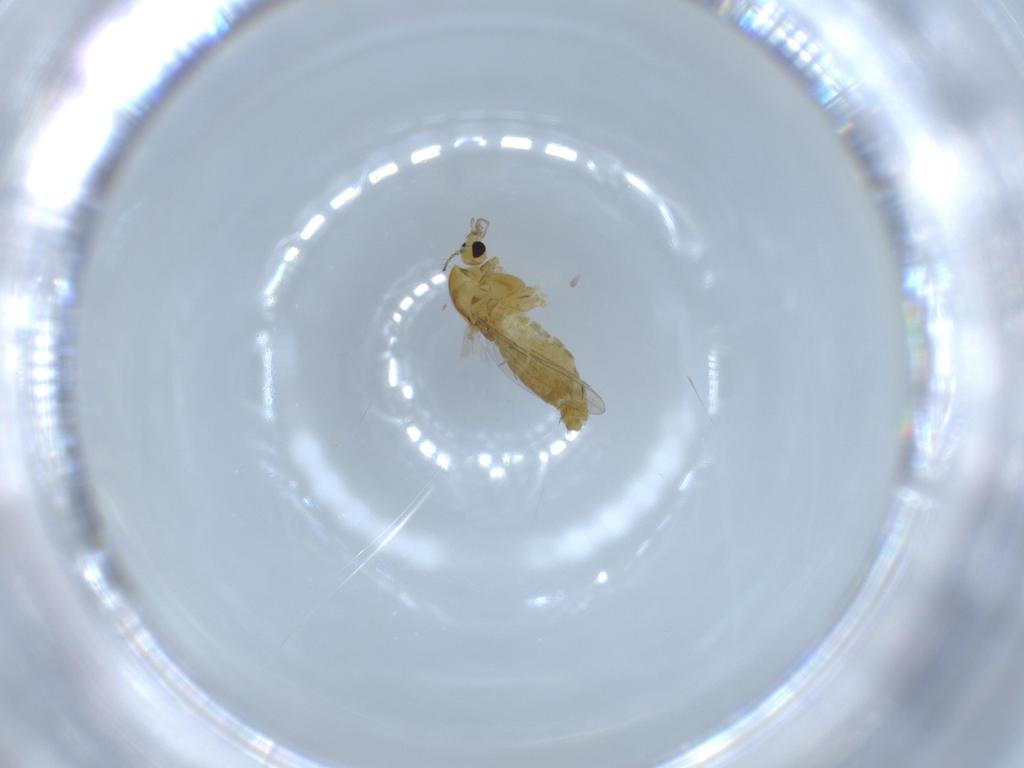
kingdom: Animalia
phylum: Arthropoda
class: Insecta
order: Diptera
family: Chironomidae
